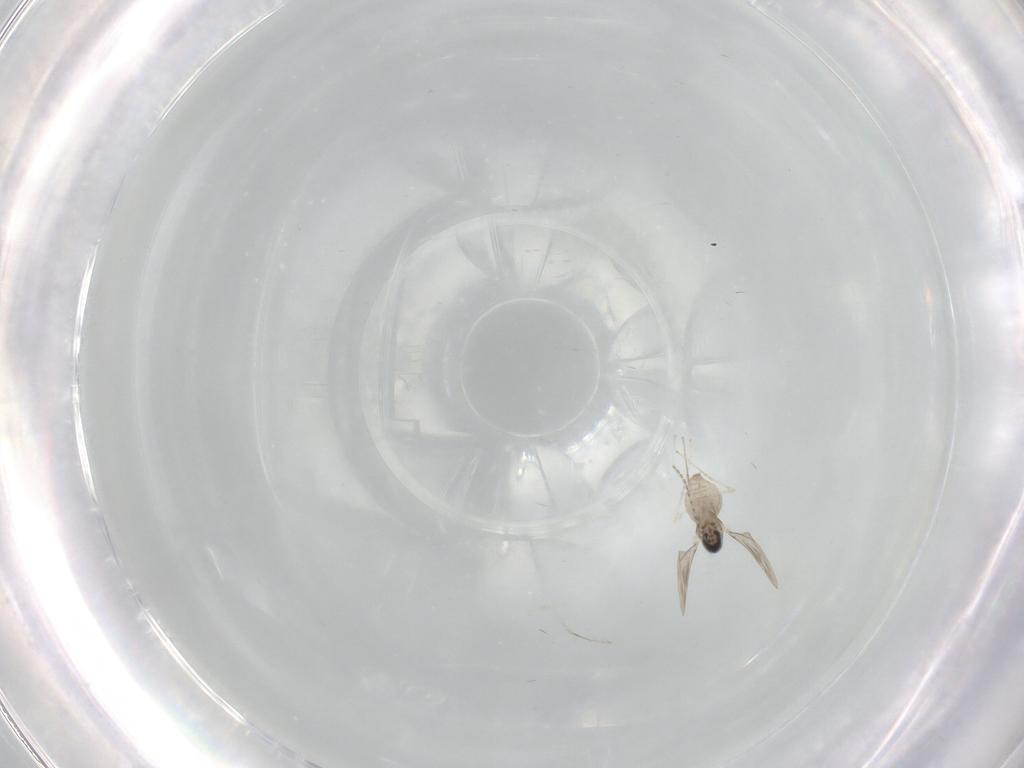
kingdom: Animalia
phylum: Arthropoda
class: Insecta
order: Diptera
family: Cecidomyiidae
